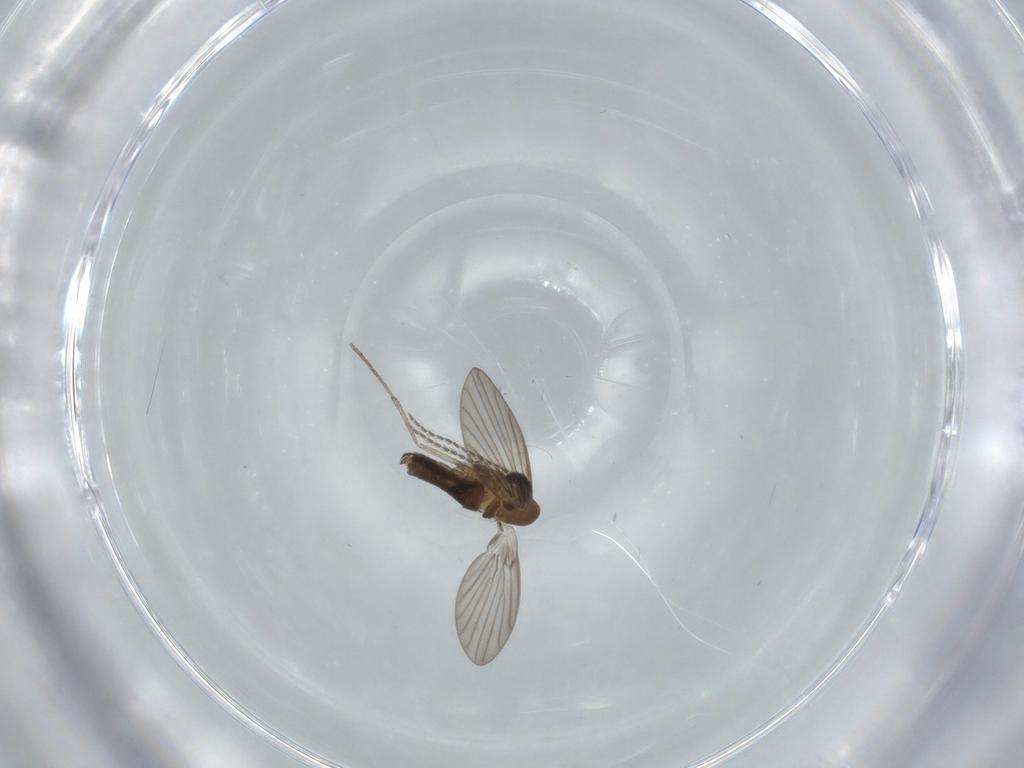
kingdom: Animalia
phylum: Arthropoda
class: Insecta
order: Diptera
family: Psychodidae
